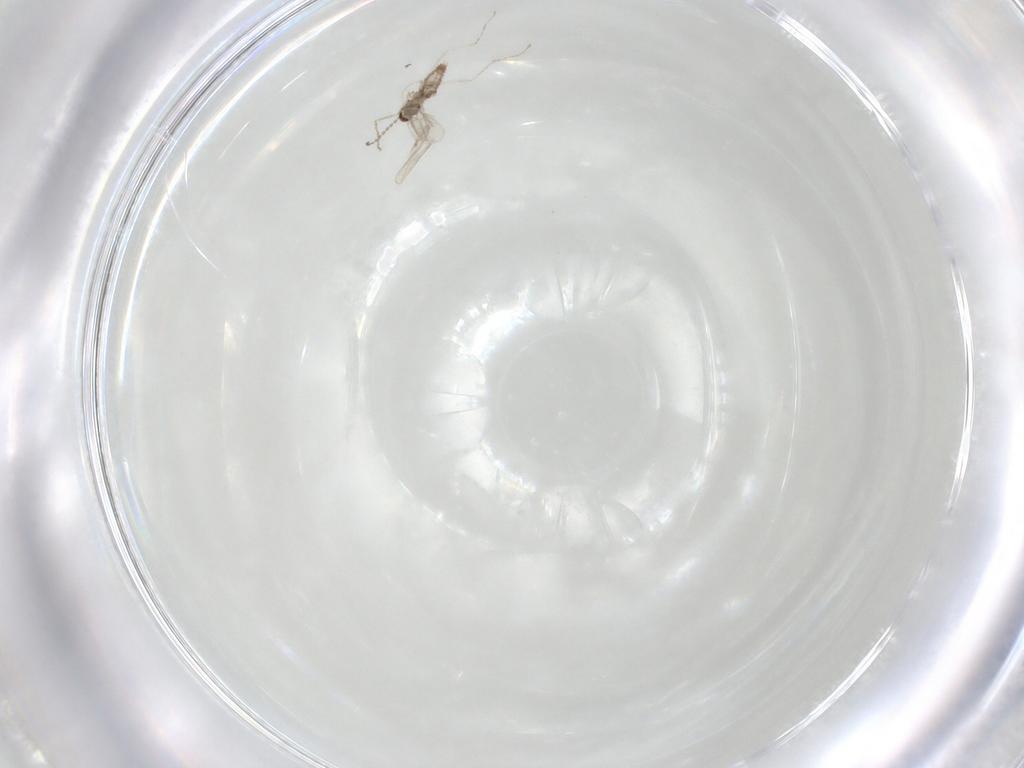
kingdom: Animalia
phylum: Arthropoda
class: Insecta
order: Diptera
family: Cecidomyiidae
